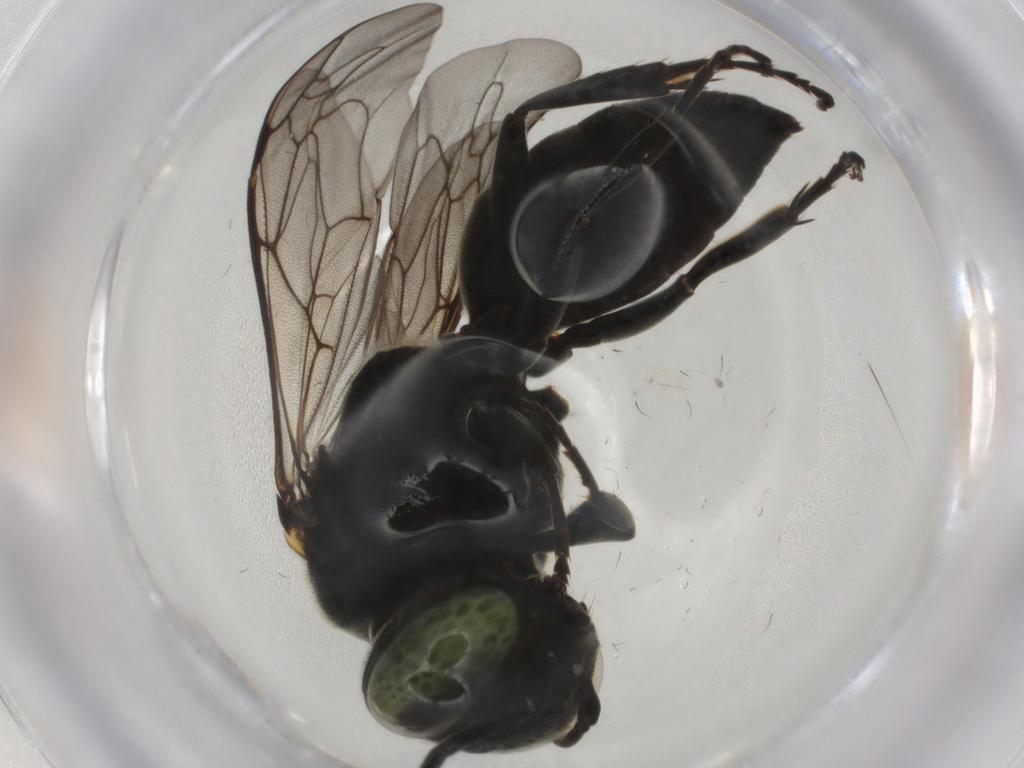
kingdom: Animalia
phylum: Arthropoda
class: Insecta
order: Hymenoptera
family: Crabronidae
